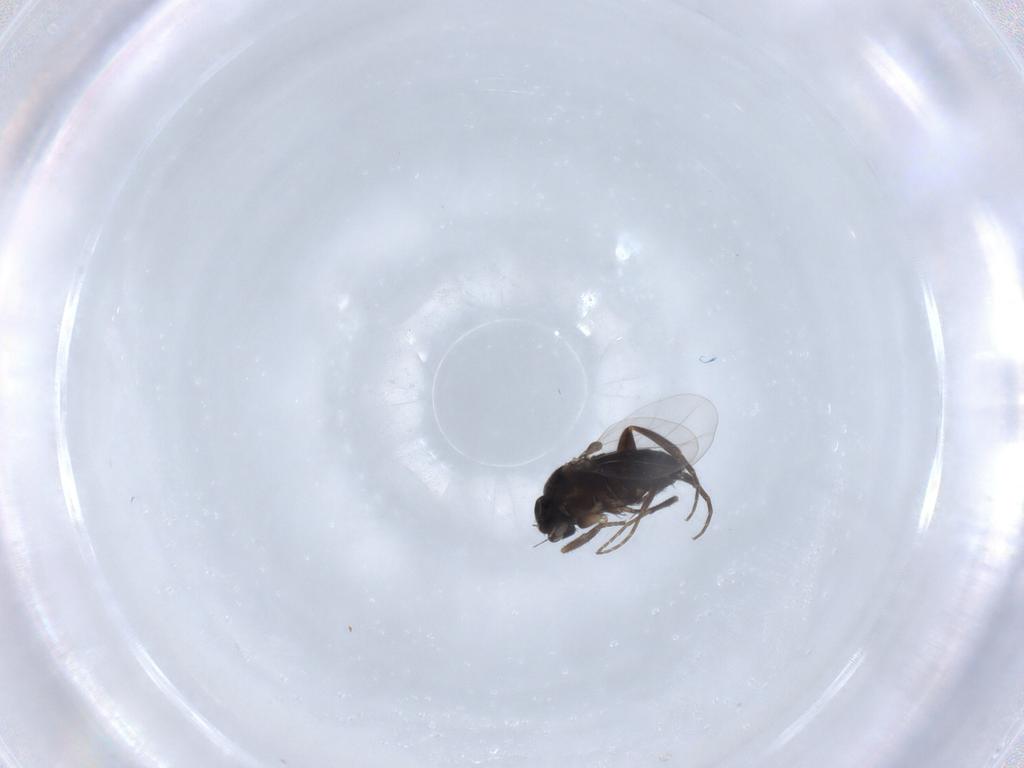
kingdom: Animalia
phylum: Arthropoda
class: Insecta
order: Diptera
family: Phoridae
